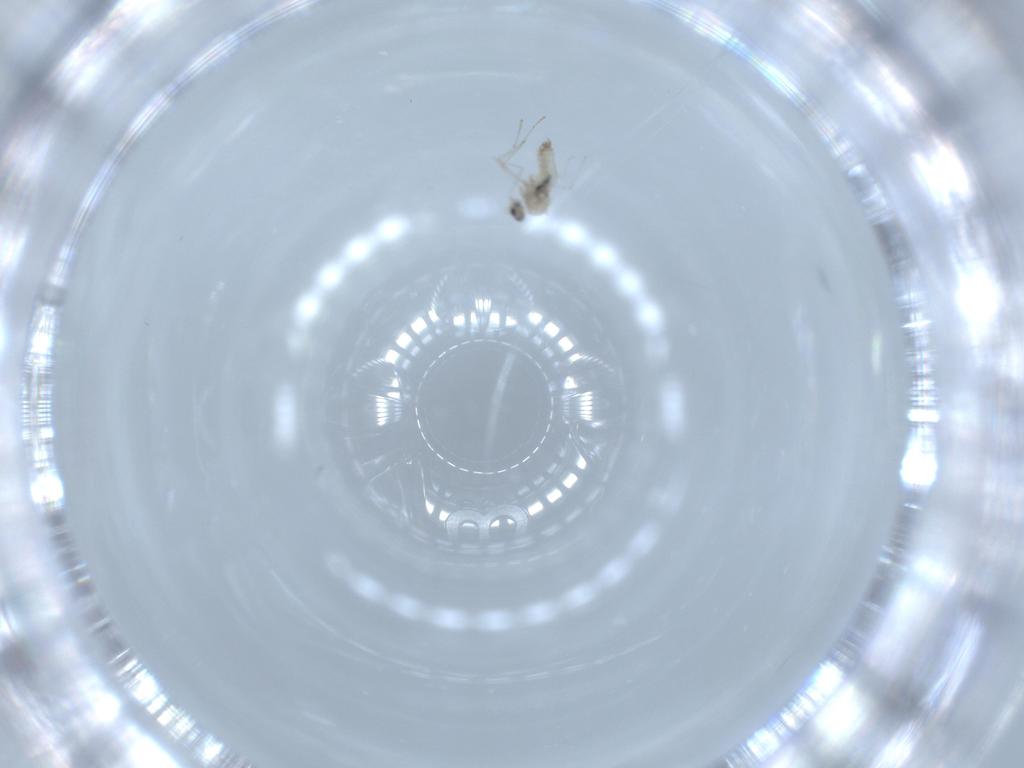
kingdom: Animalia
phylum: Arthropoda
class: Insecta
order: Diptera
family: Cecidomyiidae
